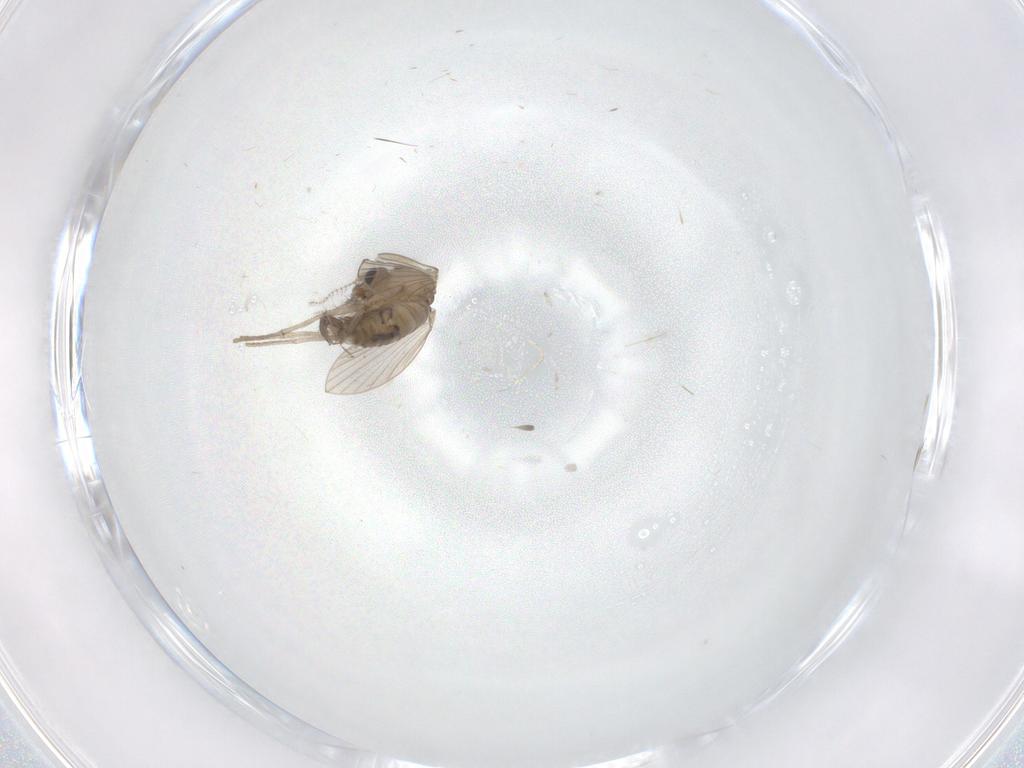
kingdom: Animalia
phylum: Arthropoda
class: Insecta
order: Diptera
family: Psychodidae
